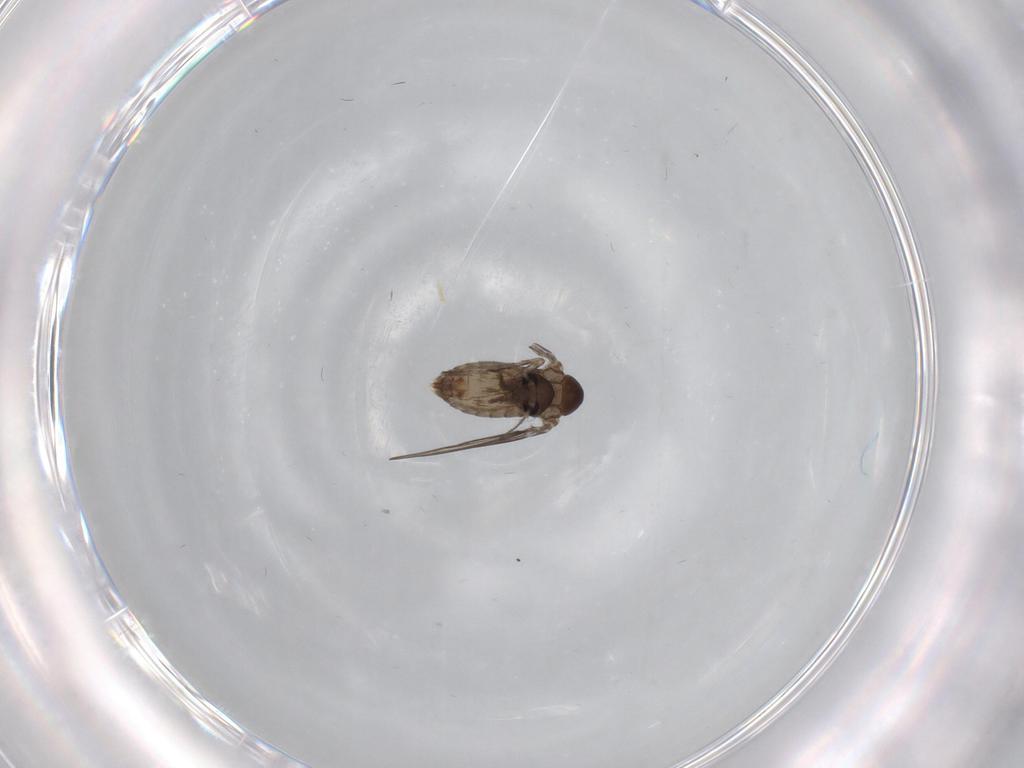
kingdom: Animalia
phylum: Arthropoda
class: Insecta
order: Diptera
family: Psychodidae
